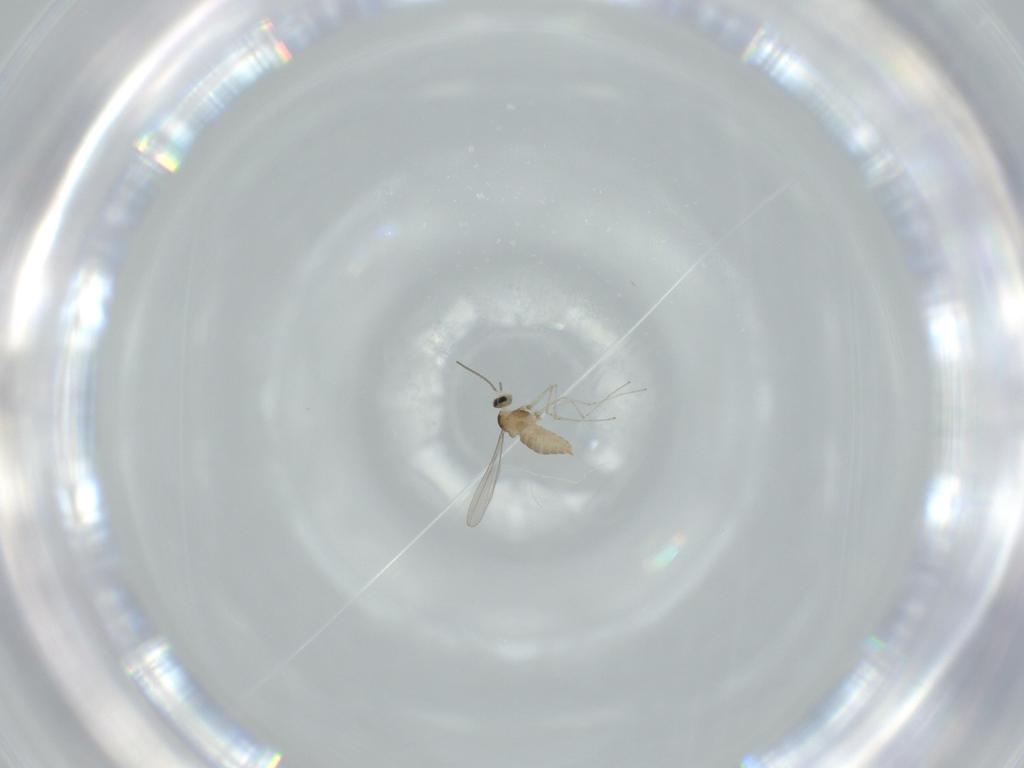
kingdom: Animalia
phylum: Arthropoda
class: Insecta
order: Diptera
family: Cecidomyiidae
